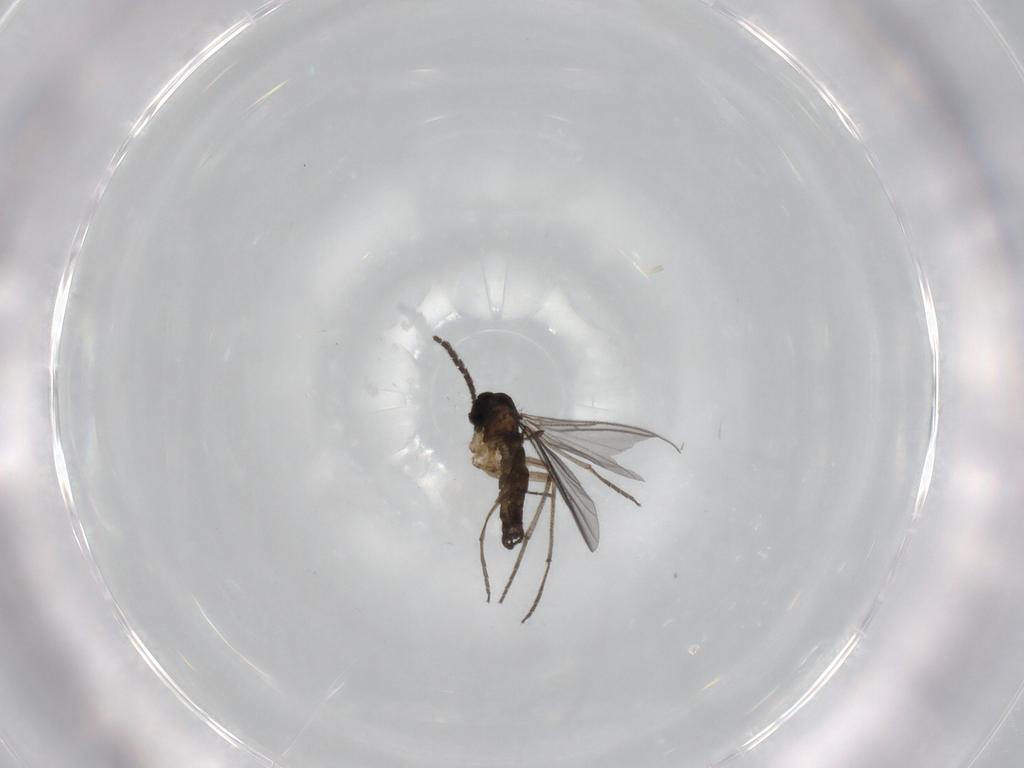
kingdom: Animalia
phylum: Arthropoda
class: Insecta
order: Diptera
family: Sciaridae
